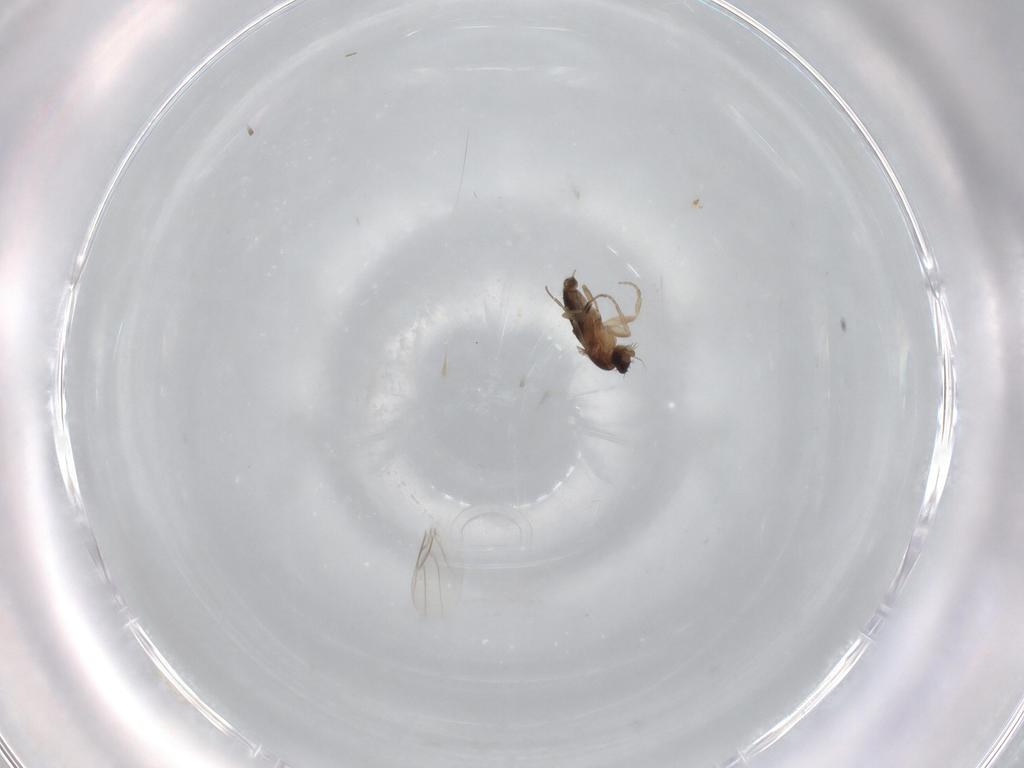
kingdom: Animalia
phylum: Arthropoda
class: Insecta
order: Diptera
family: Phoridae
